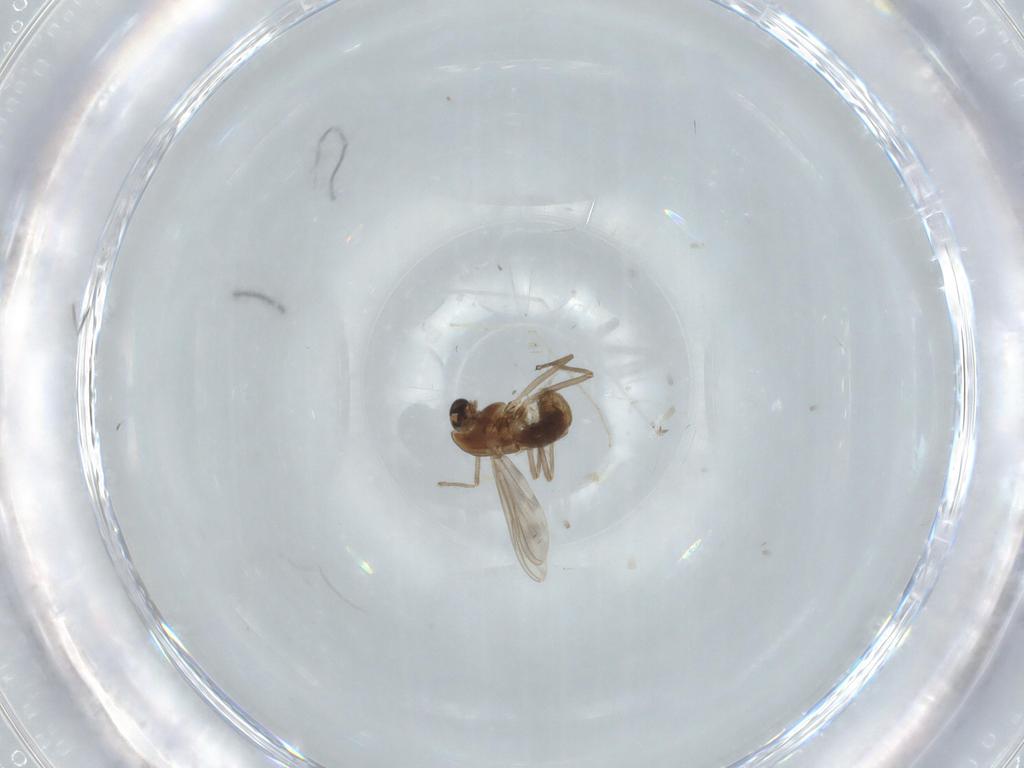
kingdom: Animalia
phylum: Arthropoda
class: Insecta
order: Diptera
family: Chironomidae
